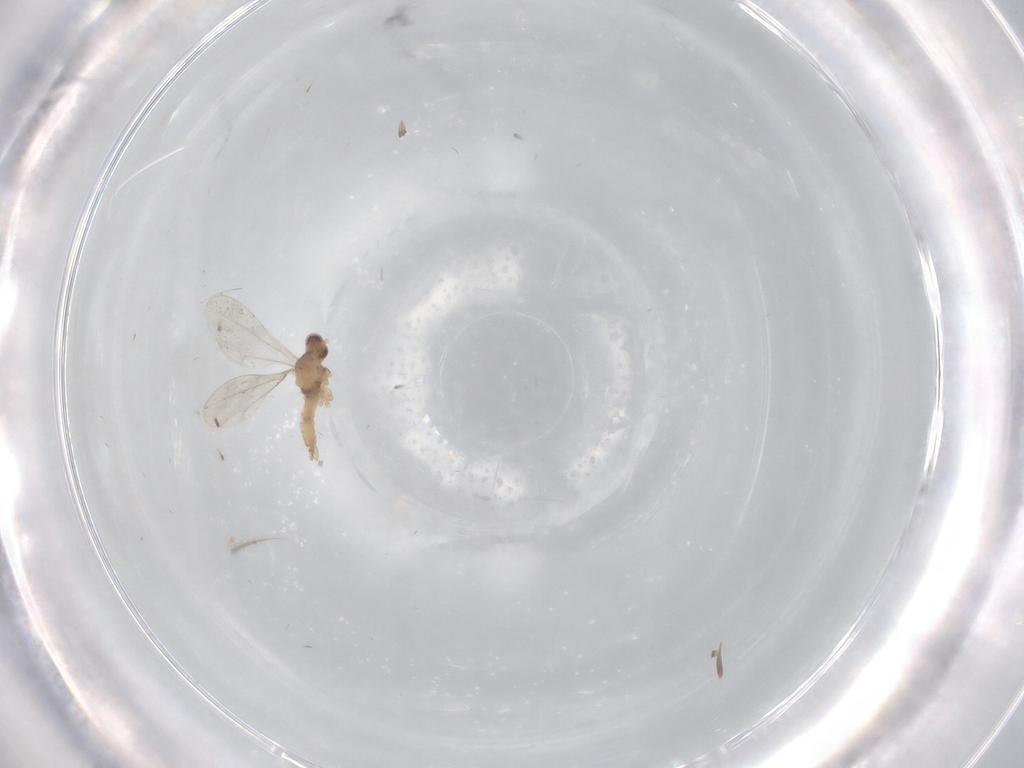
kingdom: Animalia
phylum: Arthropoda
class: Insecta
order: Diptera
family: Cecidomyiidae
